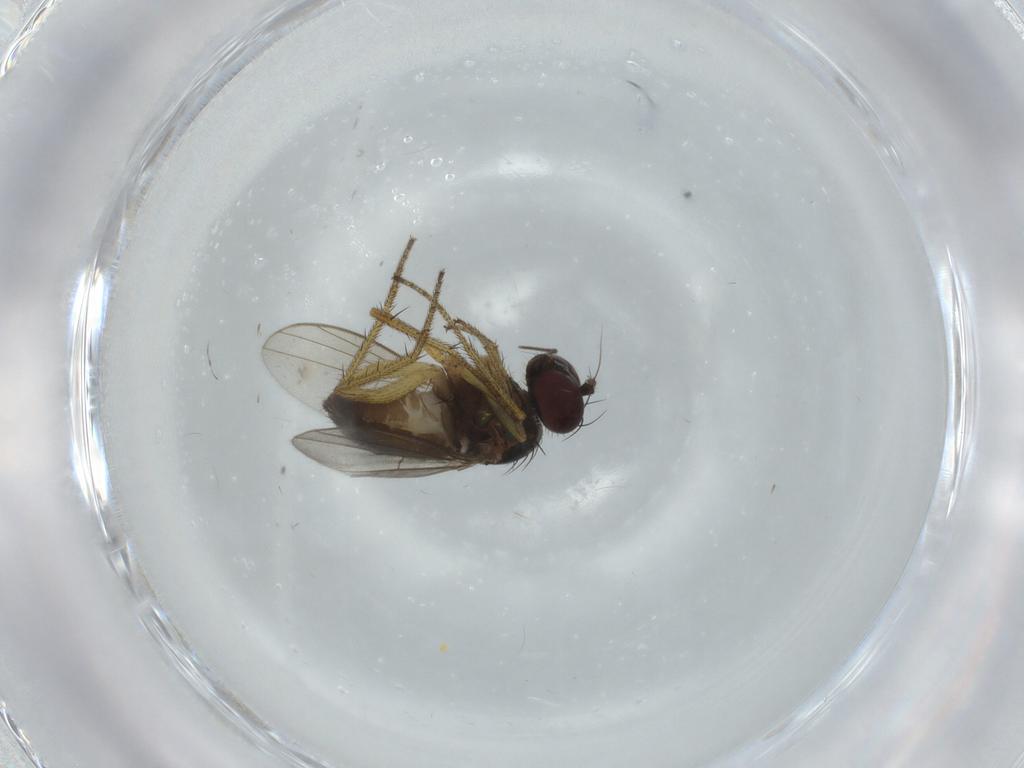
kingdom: Animalia
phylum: Arthropoda
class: Insecta
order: Diptera
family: Dolichopodidae
